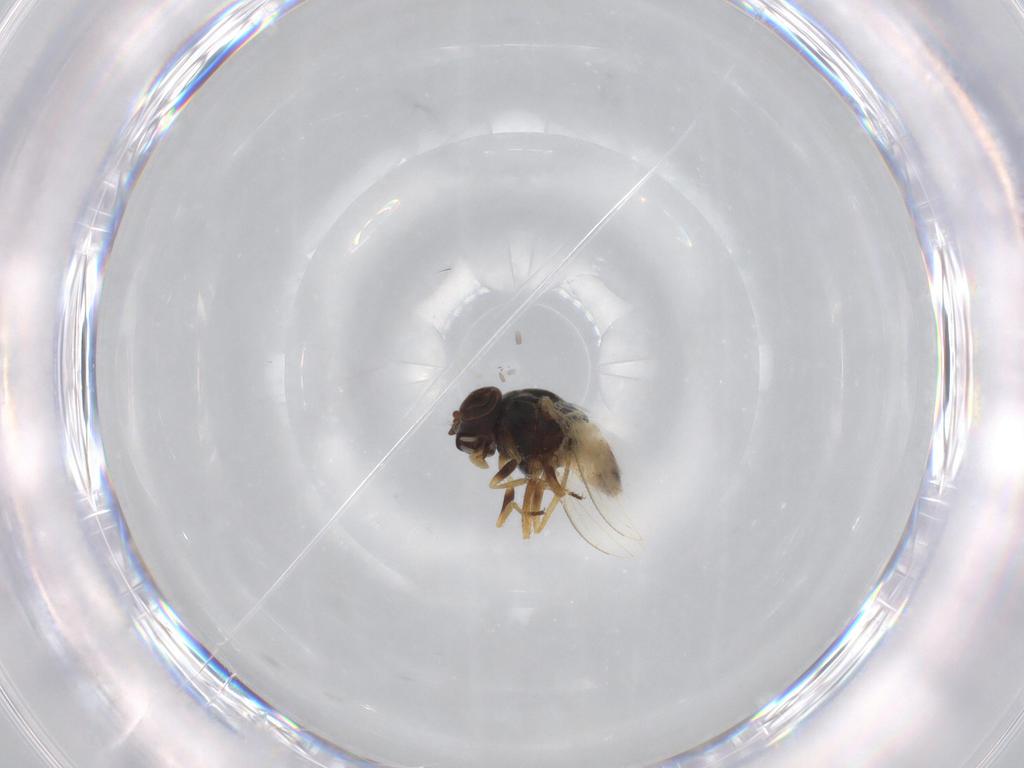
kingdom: Animalia
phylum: Arthropoda
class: Insecta
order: Diptera
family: Ephydridae
